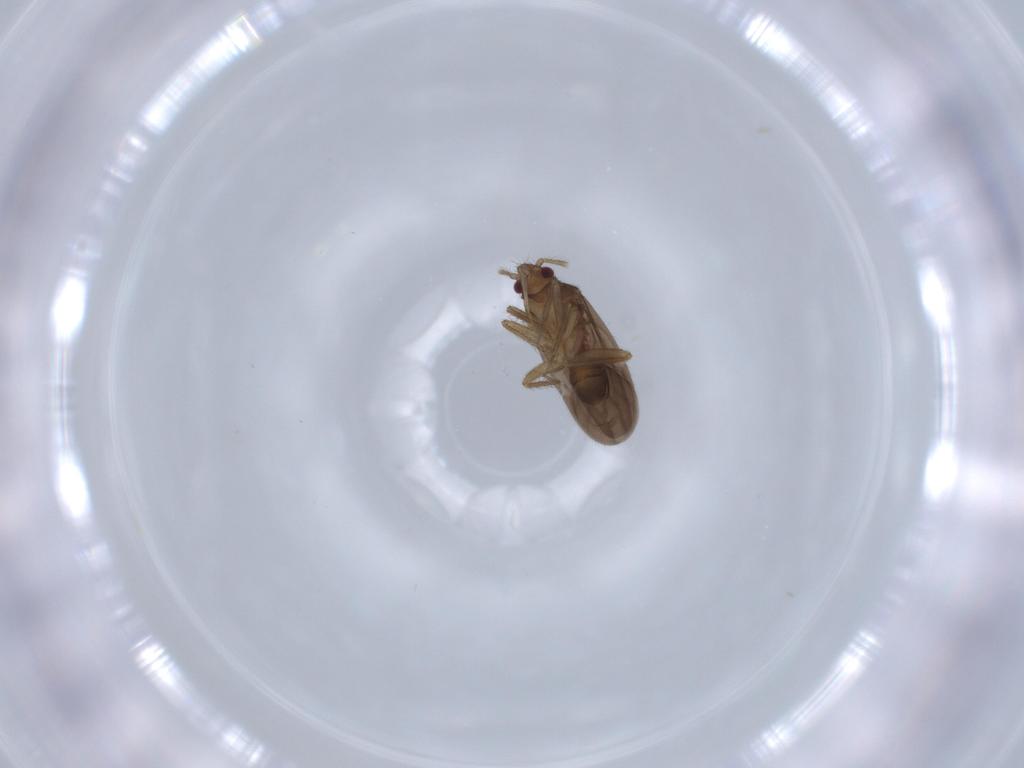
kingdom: Animalia
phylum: Arthropoda
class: Insecta
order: Hemiptera
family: Ceratocombidae
